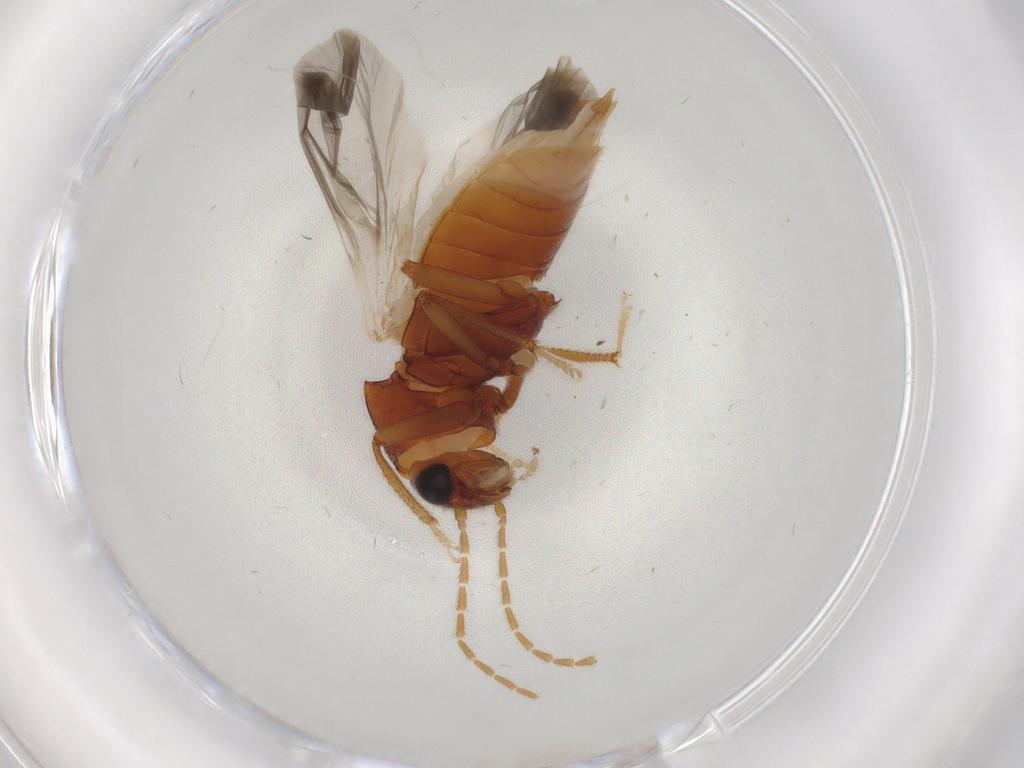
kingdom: Animalia
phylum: Arthropoda
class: Insecta
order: Coleoptera
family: Ptilodactylidae
